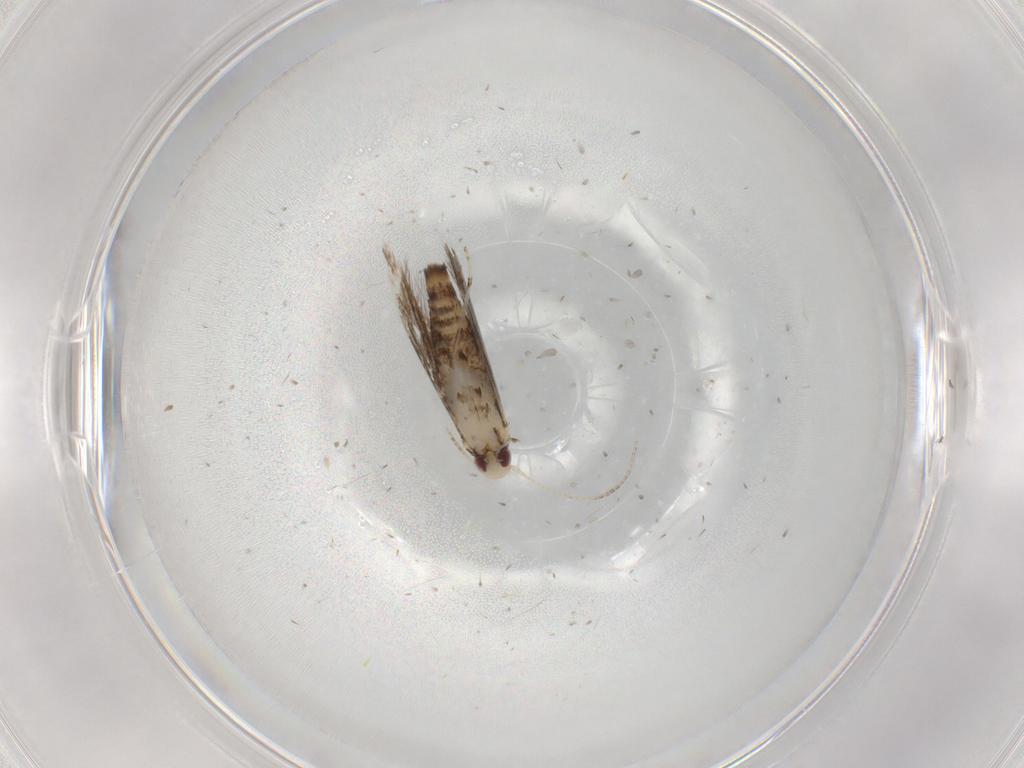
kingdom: Animalia
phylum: Arthropoda
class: Insecta
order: Lepidoptera
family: Gracillariidae
